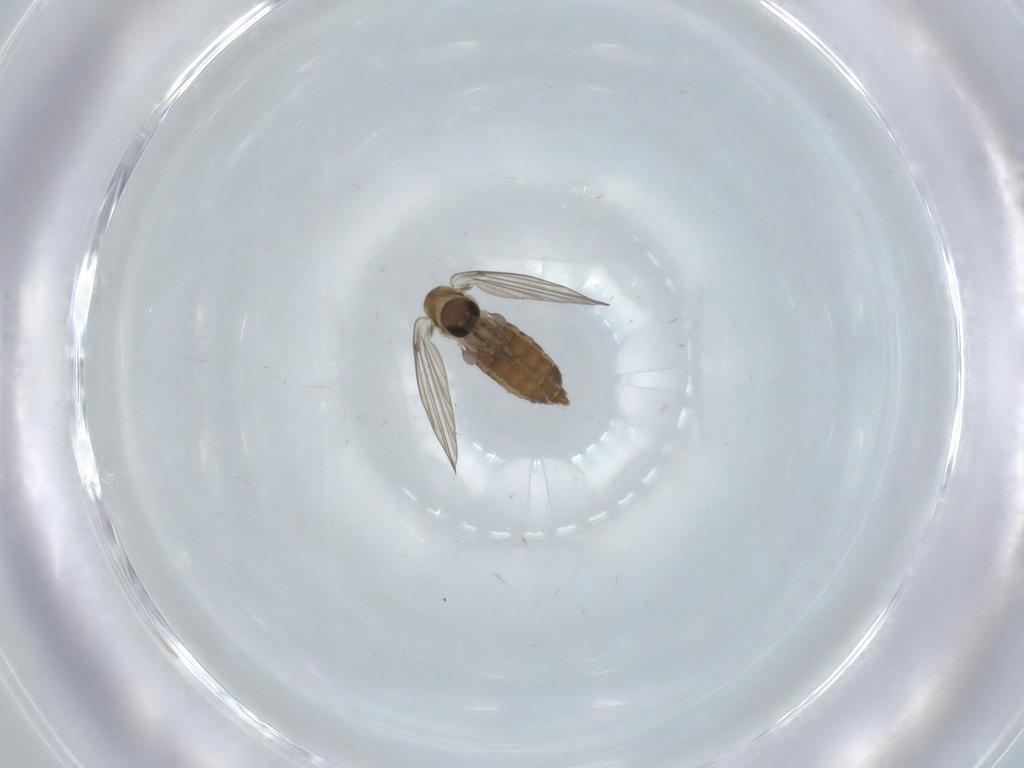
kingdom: Animalia
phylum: Arthropoda
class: Insecta
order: Diptera
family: Psychodidae
